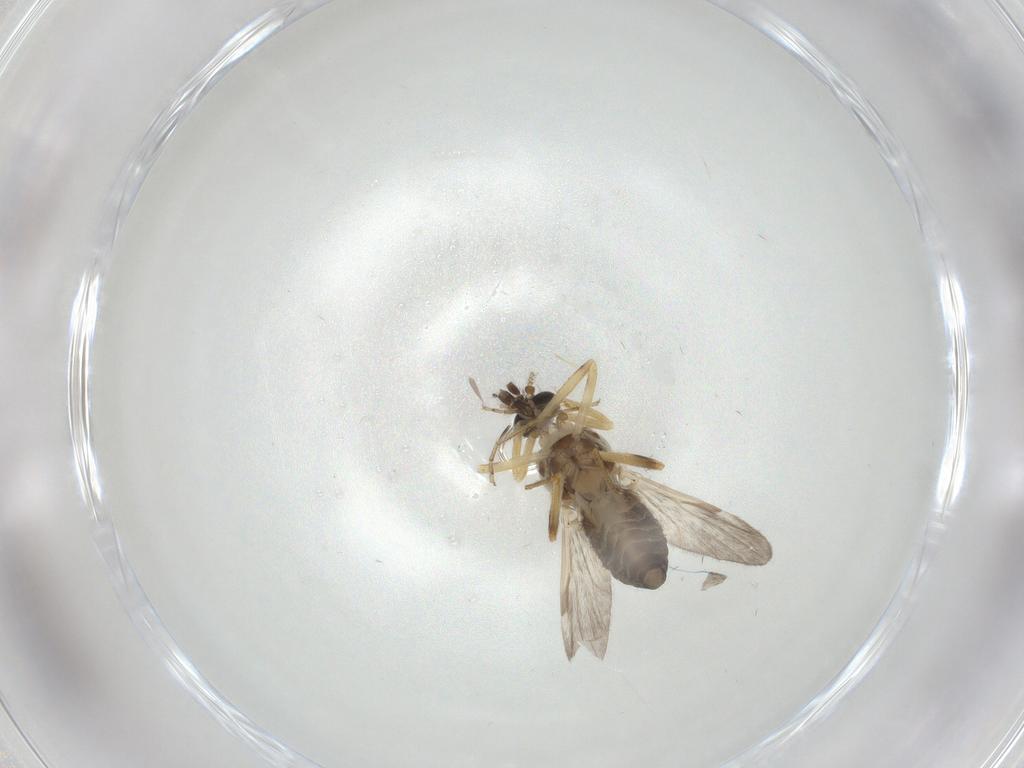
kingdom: Animalia
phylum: Arthropoda
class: Insecta
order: Diptera
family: Ceratopogonidae
